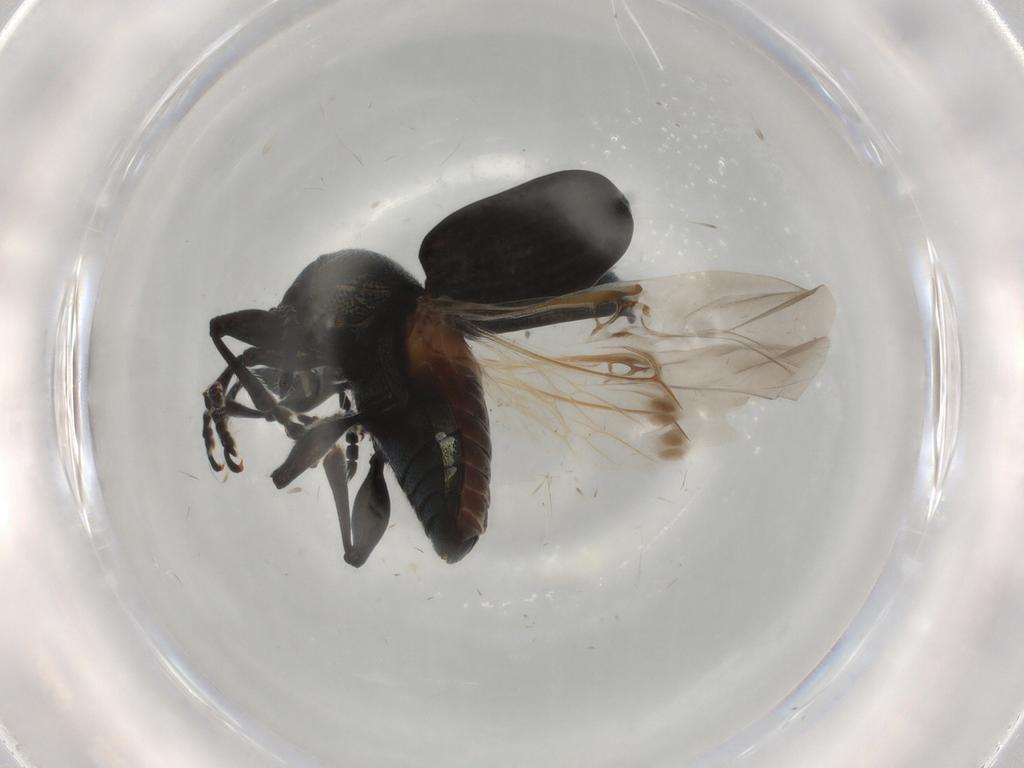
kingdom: Animalia
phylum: Arthropoda
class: Insecta
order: Coleoptera
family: Chrysomelidae
